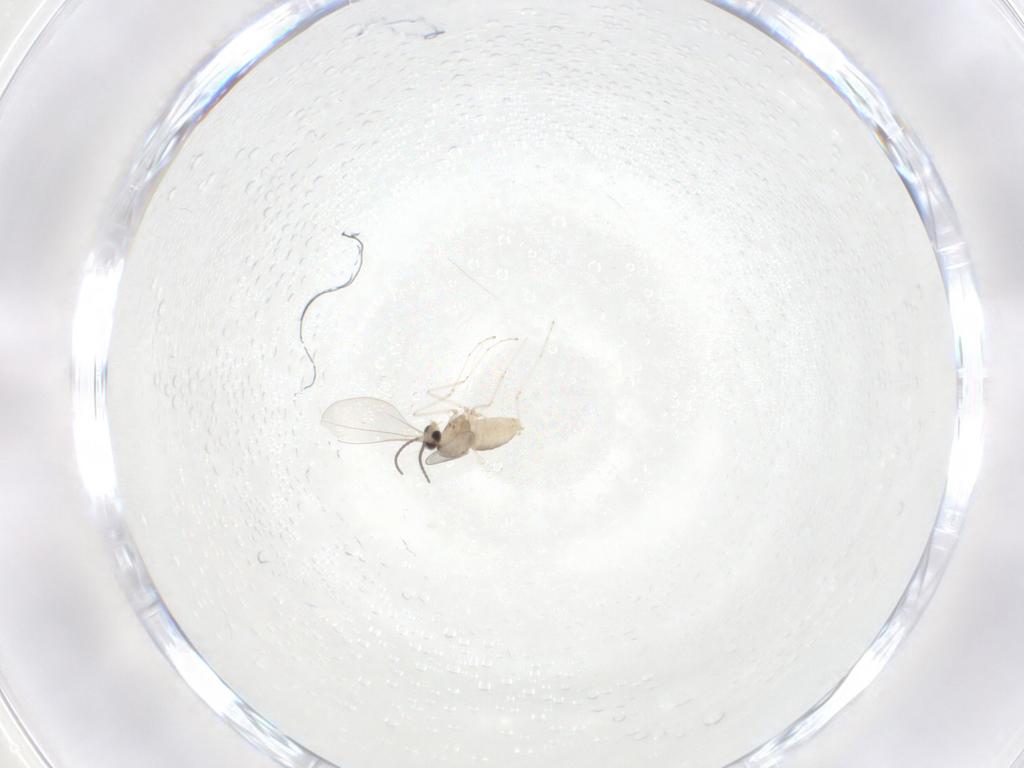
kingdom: Animalia
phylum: Arthropoda
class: Insecta
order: Diptera
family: Cecidomyiidae
